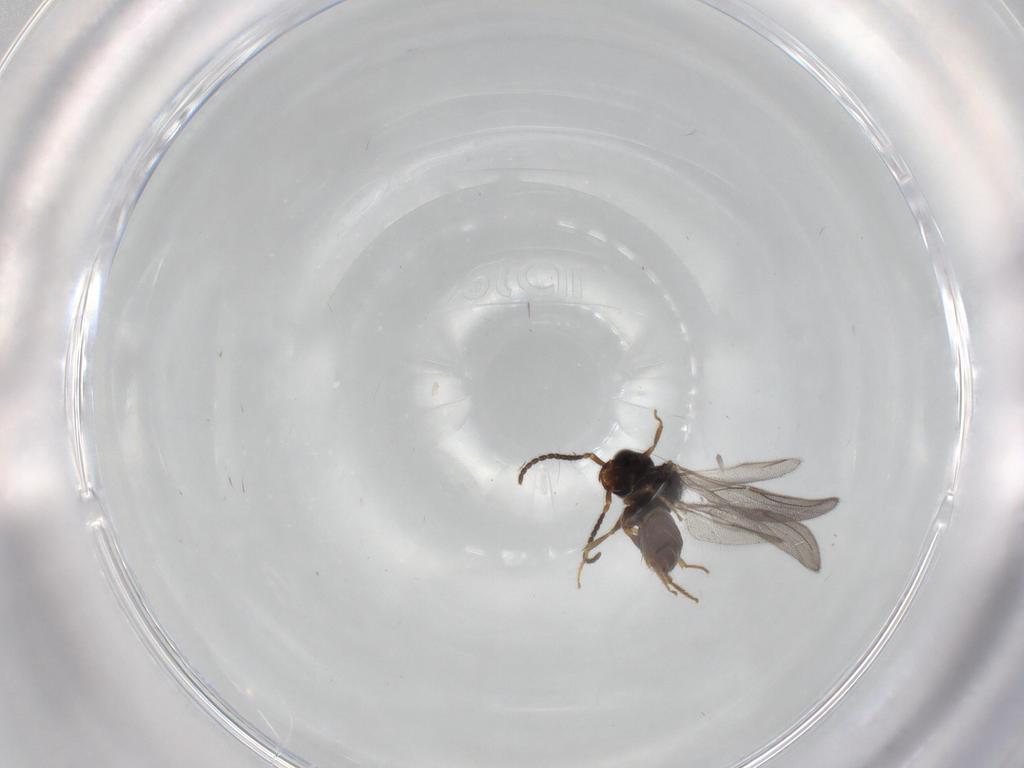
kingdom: Animalia
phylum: Arthropoda
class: Insecta
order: Hymenoptera
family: Bethylidae
